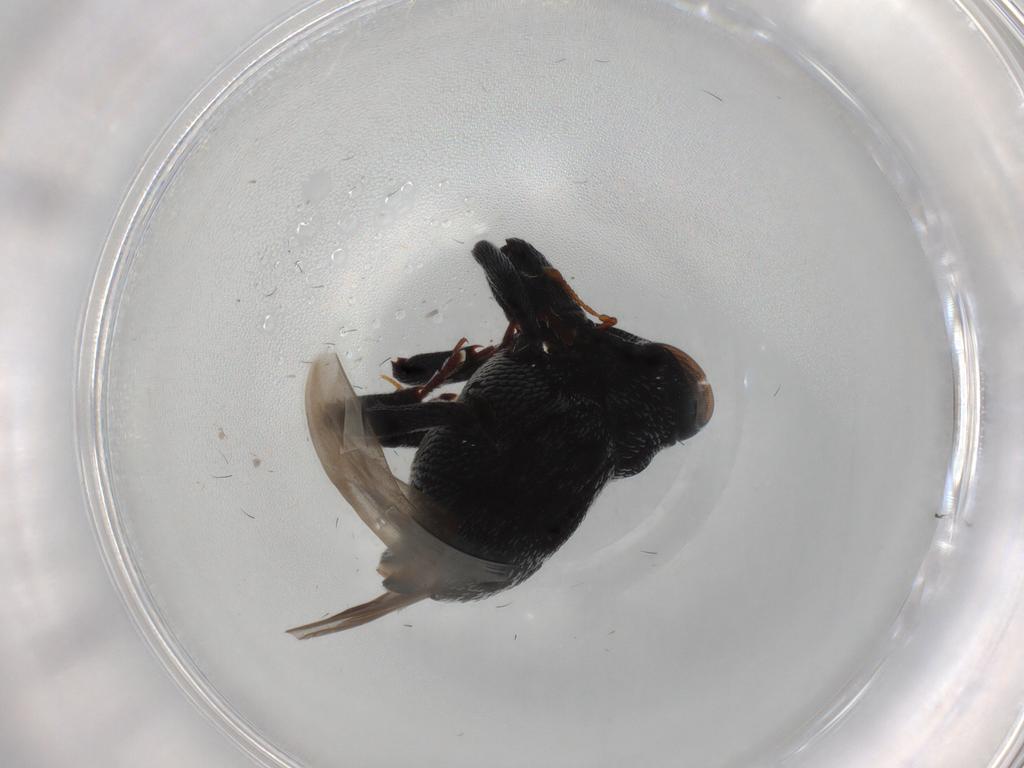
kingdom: Animalia
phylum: Arthropoda
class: Insecta
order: Coleoptera
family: Curculionidae
